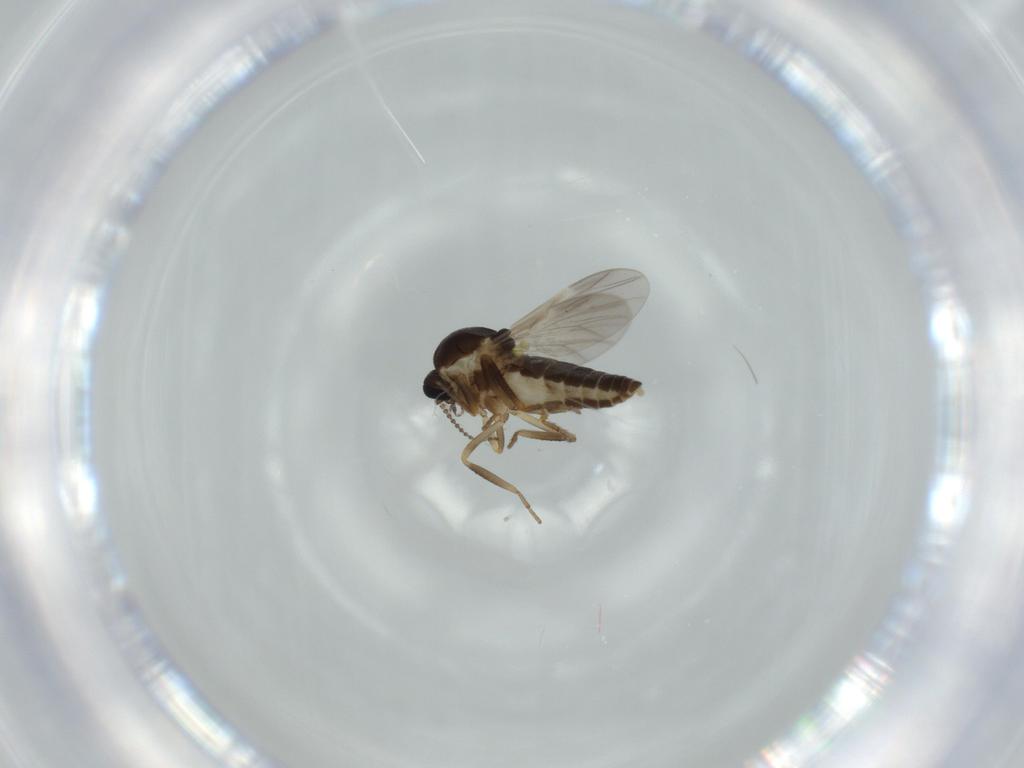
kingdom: Animalia
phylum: Arthropoda
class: Insecta
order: Diptera
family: Ceratopogonidae
